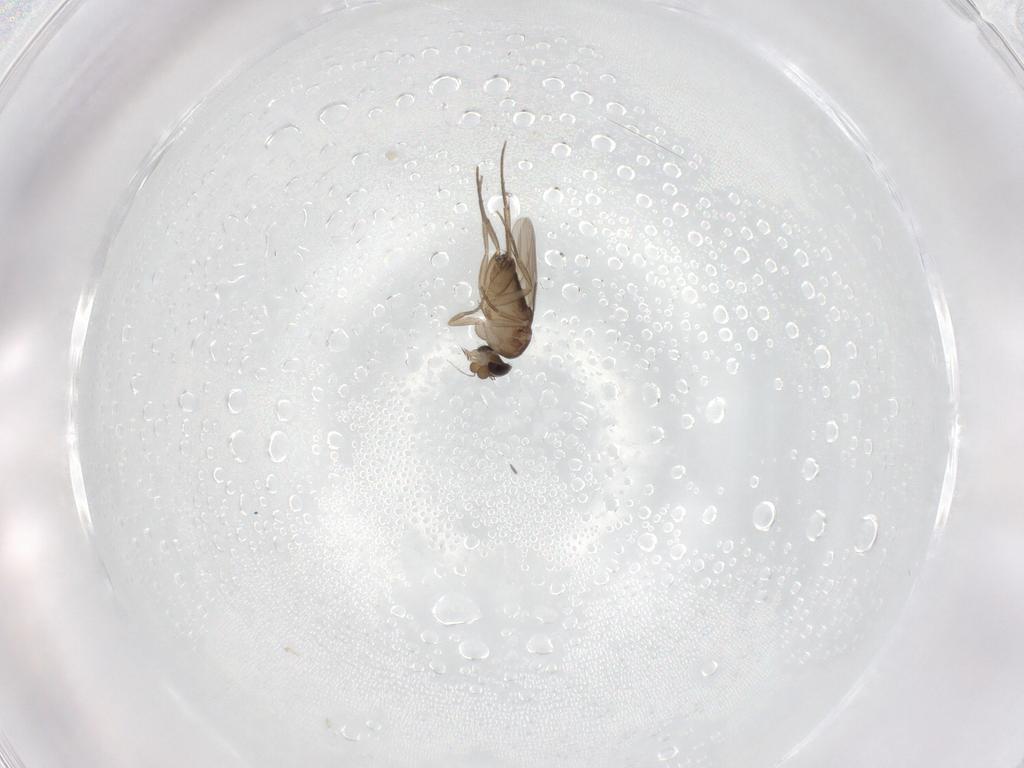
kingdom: Animalia
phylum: Arthropoda
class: Insecta
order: Diptera
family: Phoridae
